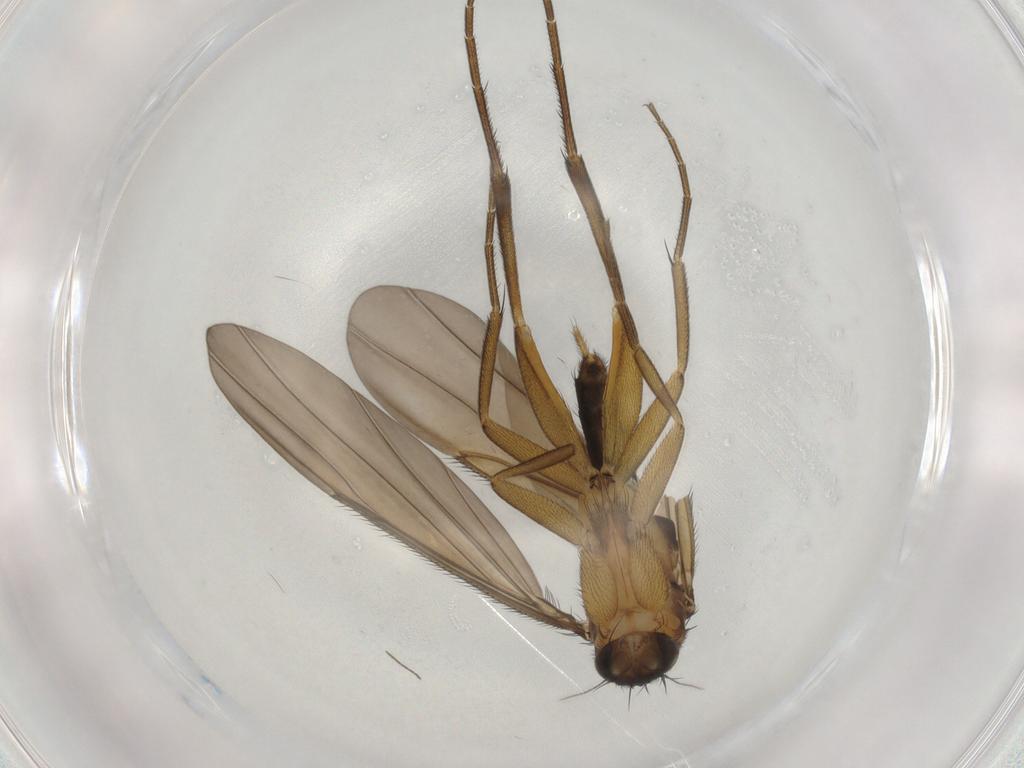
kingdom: Animalia
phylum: Arthropoda
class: Insecta
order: Diptera
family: Phoridae
